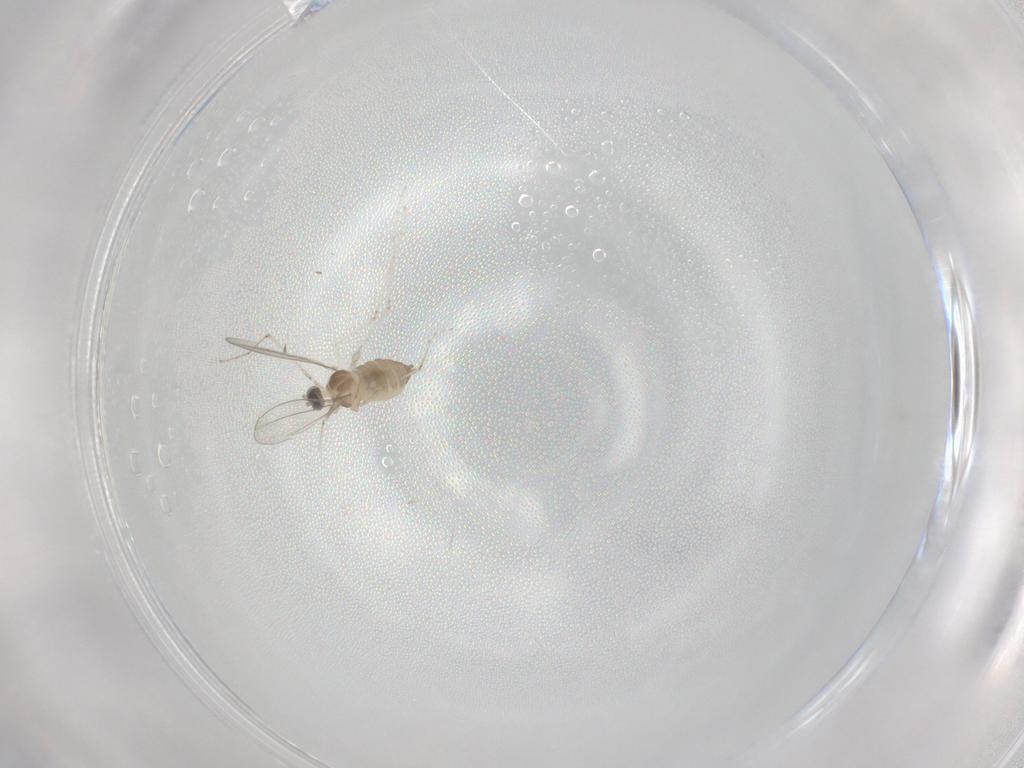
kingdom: Animalia
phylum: Arthropoda
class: Insecta
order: Diptera
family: Cecidomyiidae
